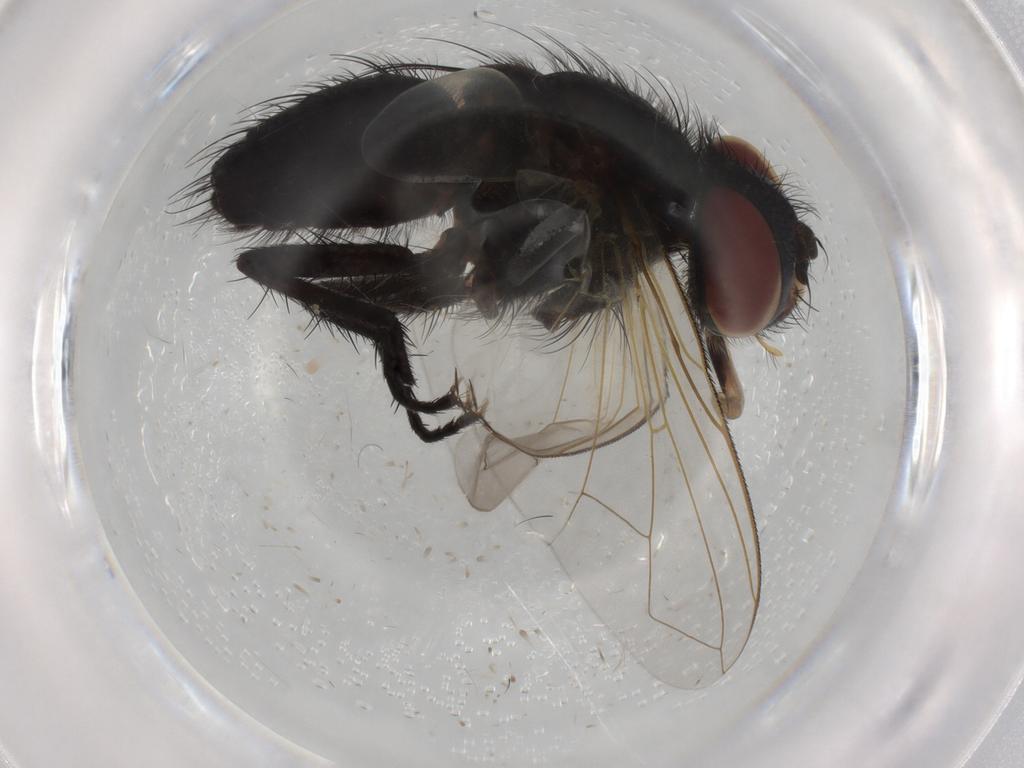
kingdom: Animalia
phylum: Arthropoda
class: Insecta
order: Diptera
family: Tachinidae
